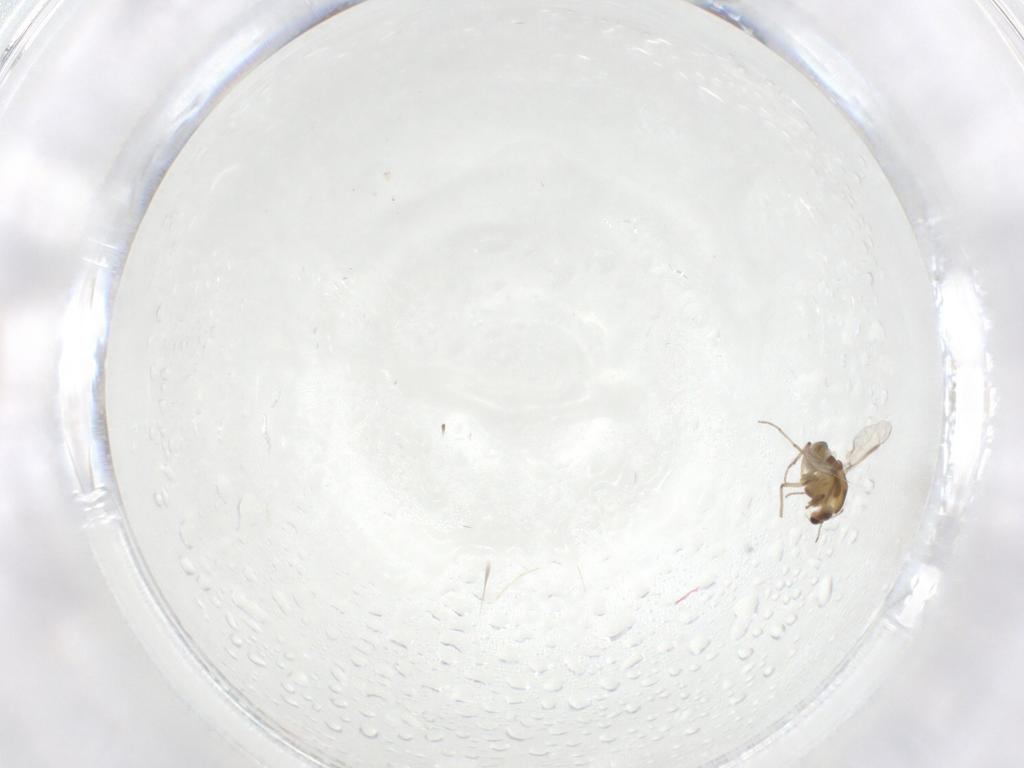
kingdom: Animalia
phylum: Arthropoda
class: Insecta
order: Diptera
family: Chironomidae
